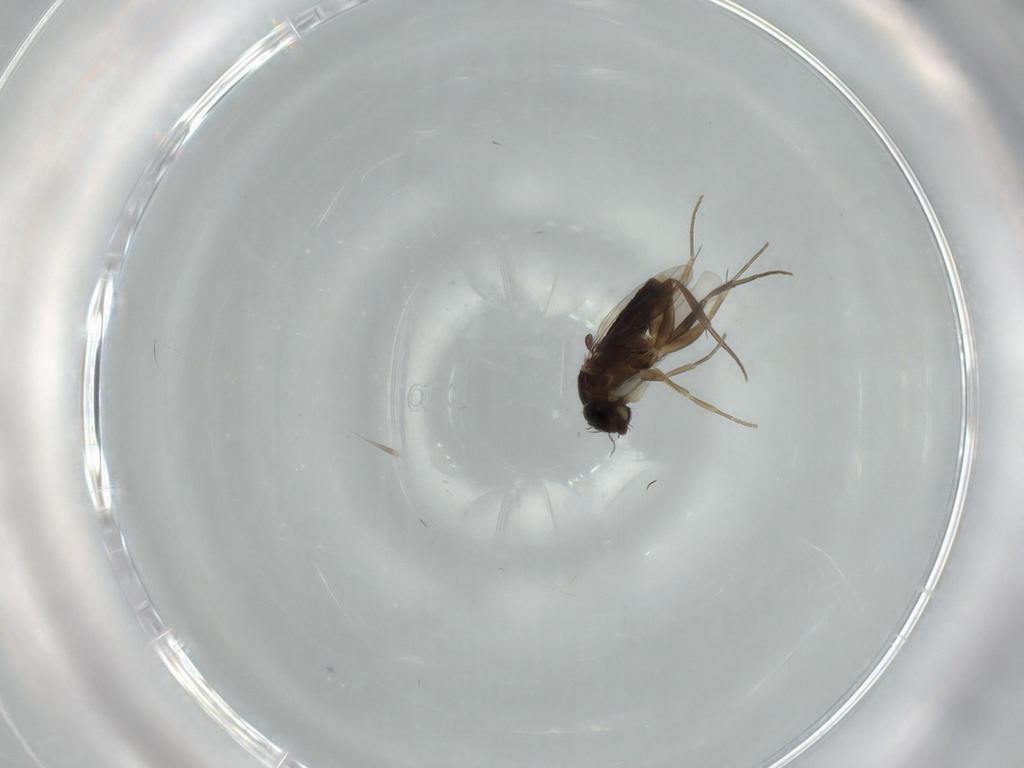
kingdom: Animalia
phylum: Arthropoda
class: Insecta
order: Diptera
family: Phoridae
